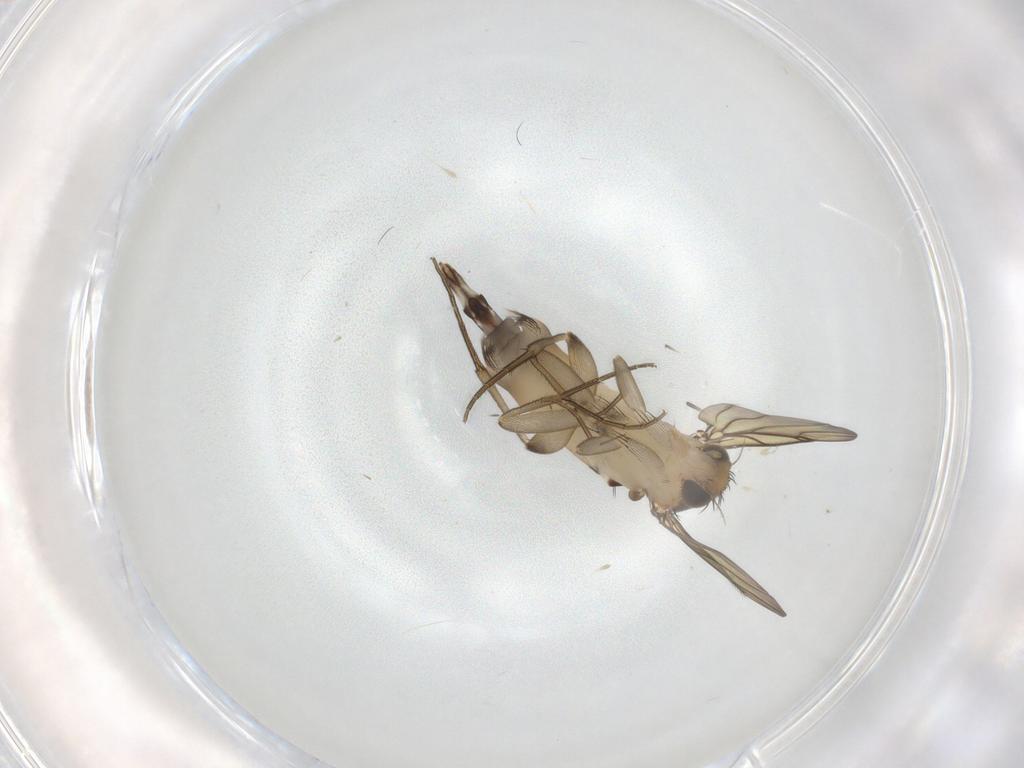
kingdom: Animalia
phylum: Arthropoda
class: Insecta
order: Diptera
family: Phoridae
